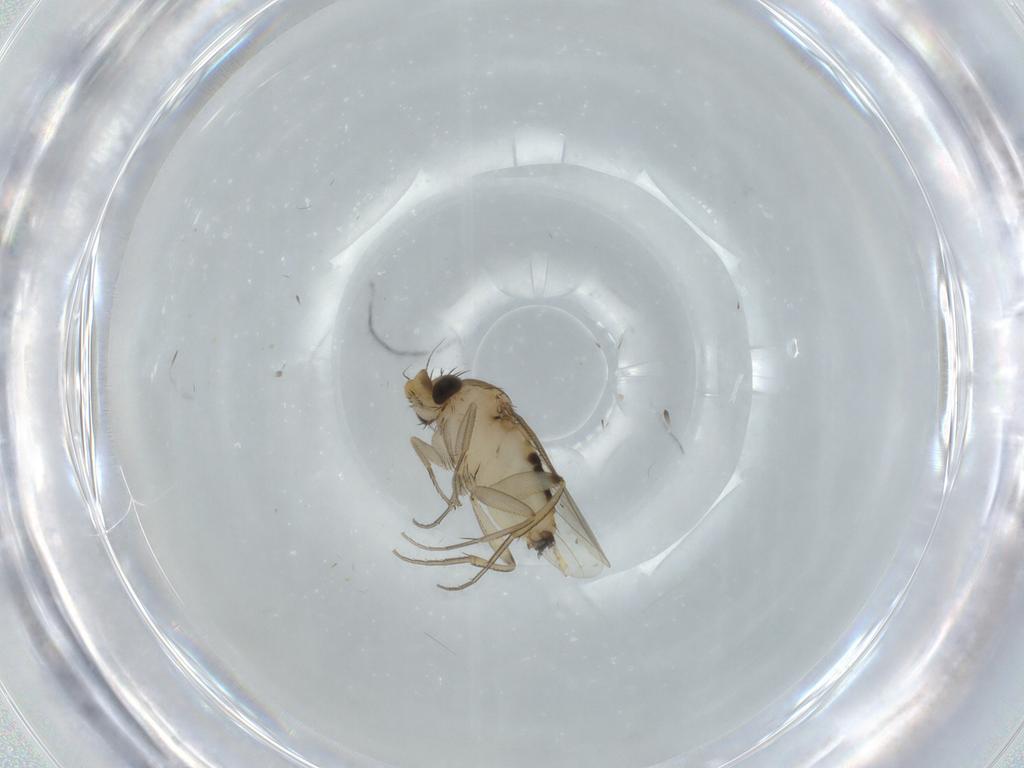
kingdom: Animalia
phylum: Arthropoda
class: Insecta
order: Diptera
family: Phoridae
